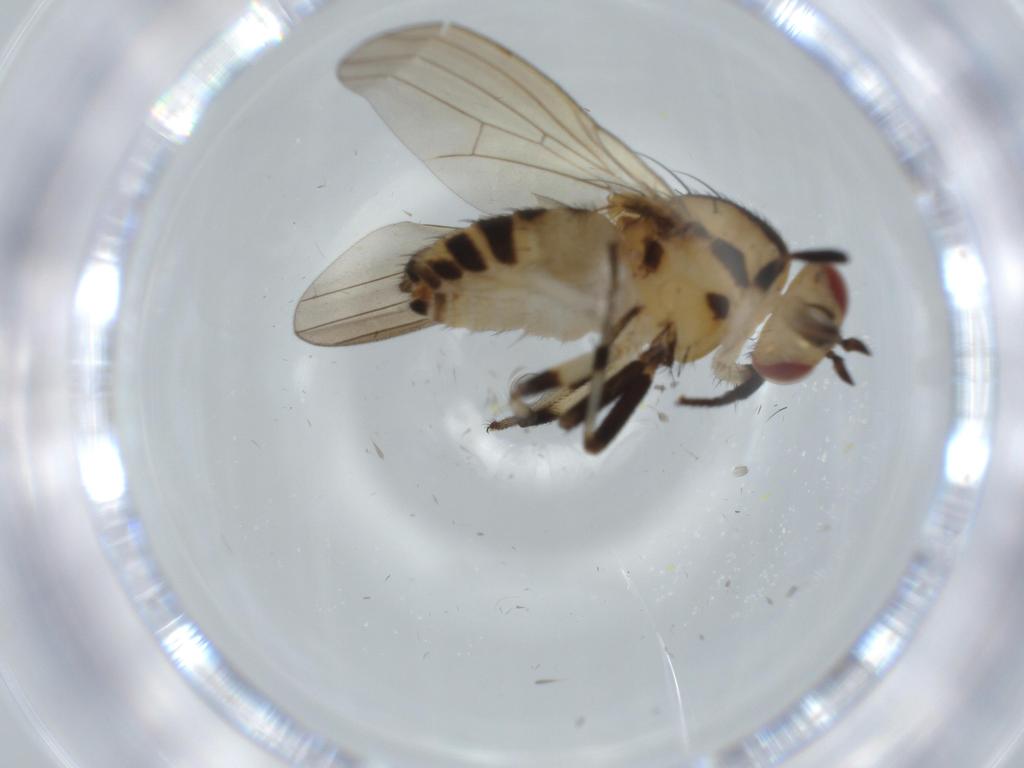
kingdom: Animalia
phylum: Arthropoda
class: Insecta
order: Diptera
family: Lauxaniidae
